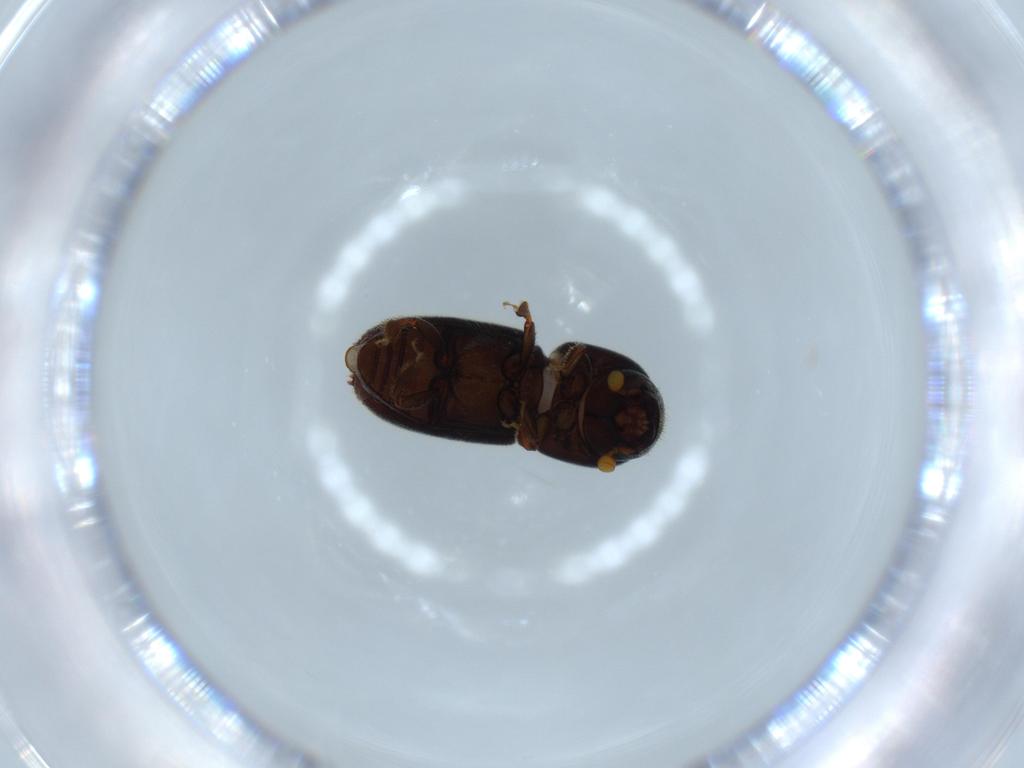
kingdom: Animalia
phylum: Arthropoda
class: Insecta
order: Coleoptera
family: Curculionidae
